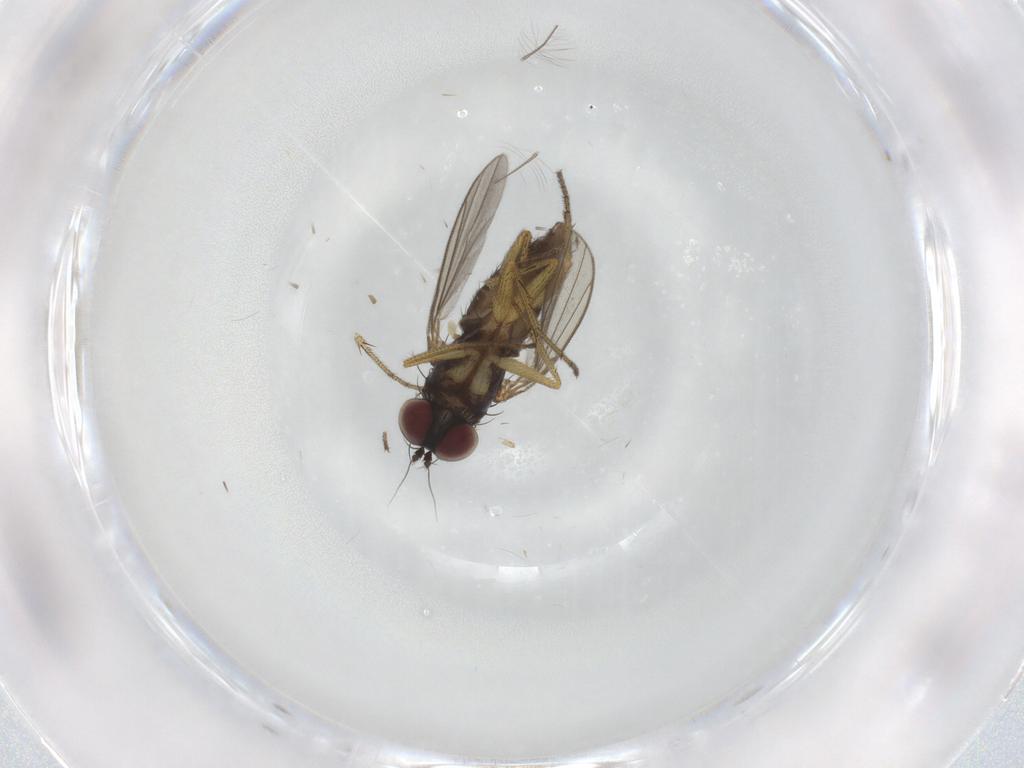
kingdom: Animalia
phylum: Arthropoda
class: Insecta
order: Diptera
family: Chironomidae
